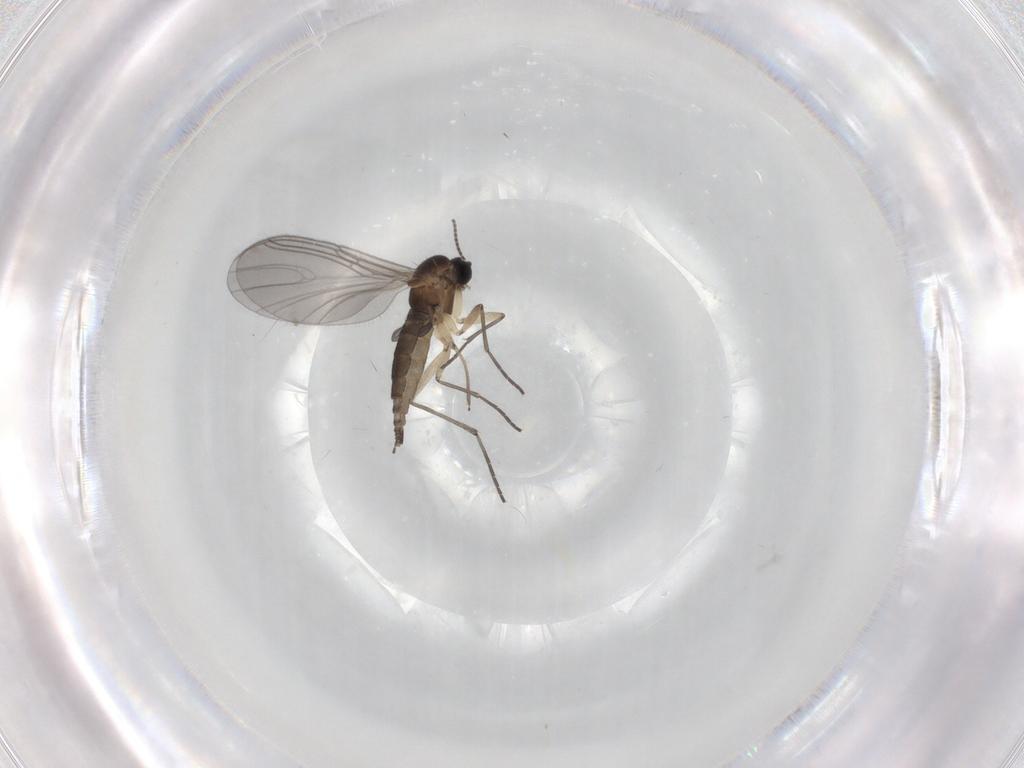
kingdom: Animalia
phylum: Arthropoda
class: Insecta
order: Diptera
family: Sciaridae
